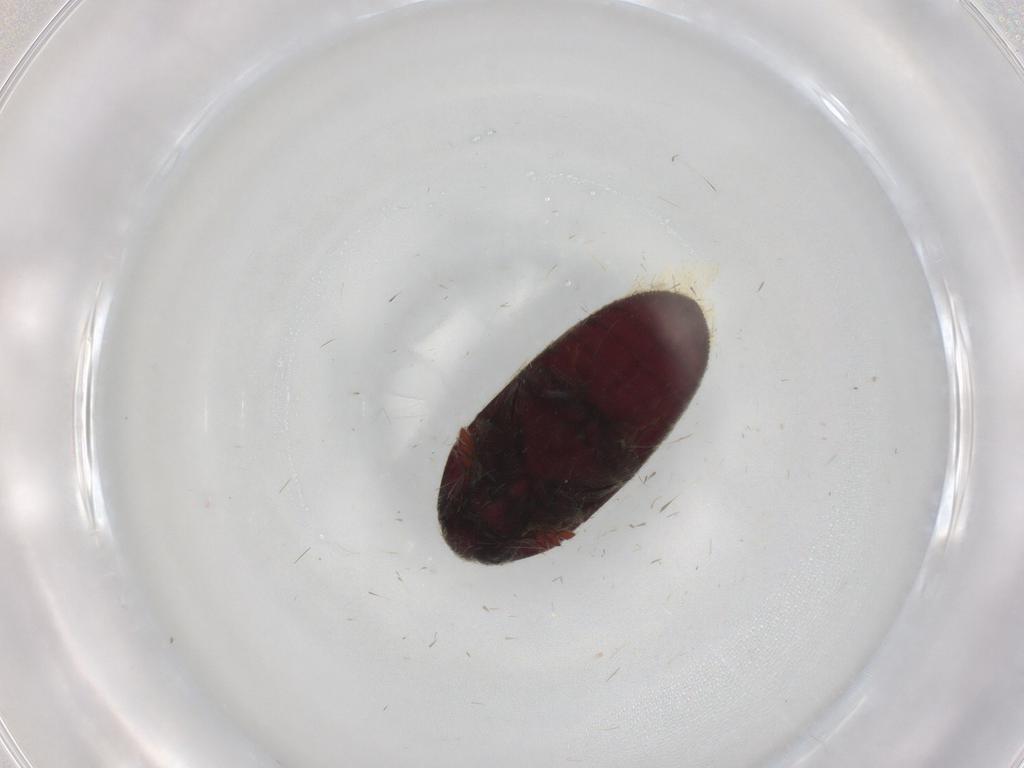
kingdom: Animalia
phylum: Arthropoda
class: Insecta
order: Coleoptera
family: Throscidae
